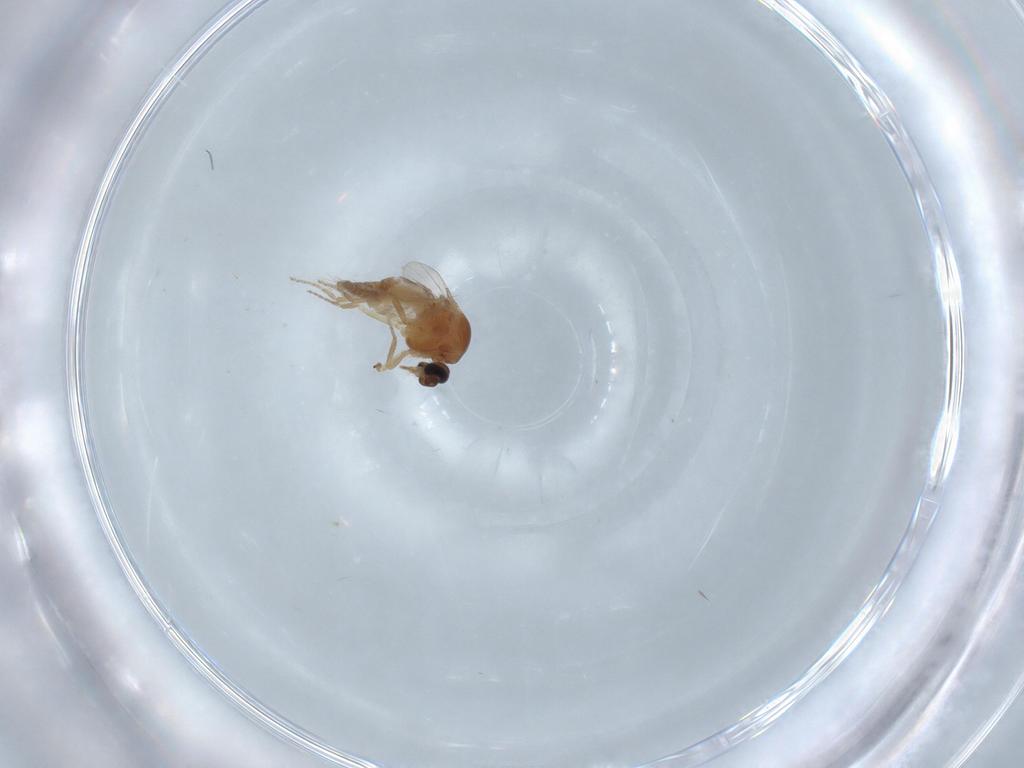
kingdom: Animalia
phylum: Arthropoda
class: Insecta
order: Diptera
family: Ceratopogonidae
